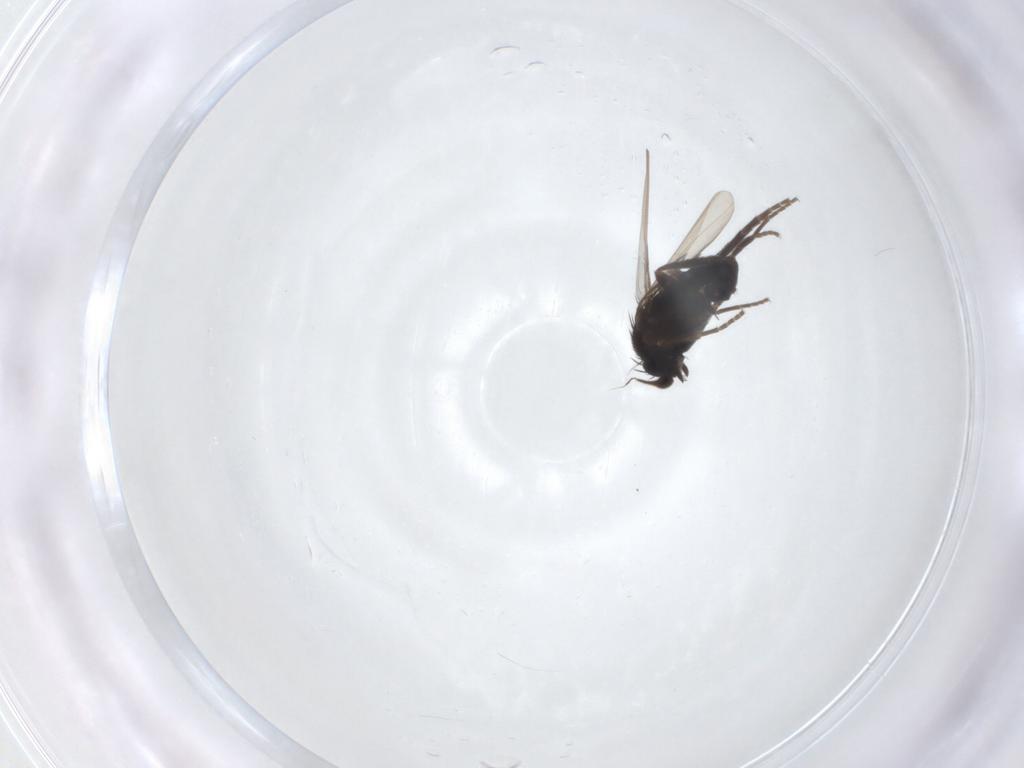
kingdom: Animalia
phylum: Arthropoda
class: Insecta
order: Diptera
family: Phoridae
